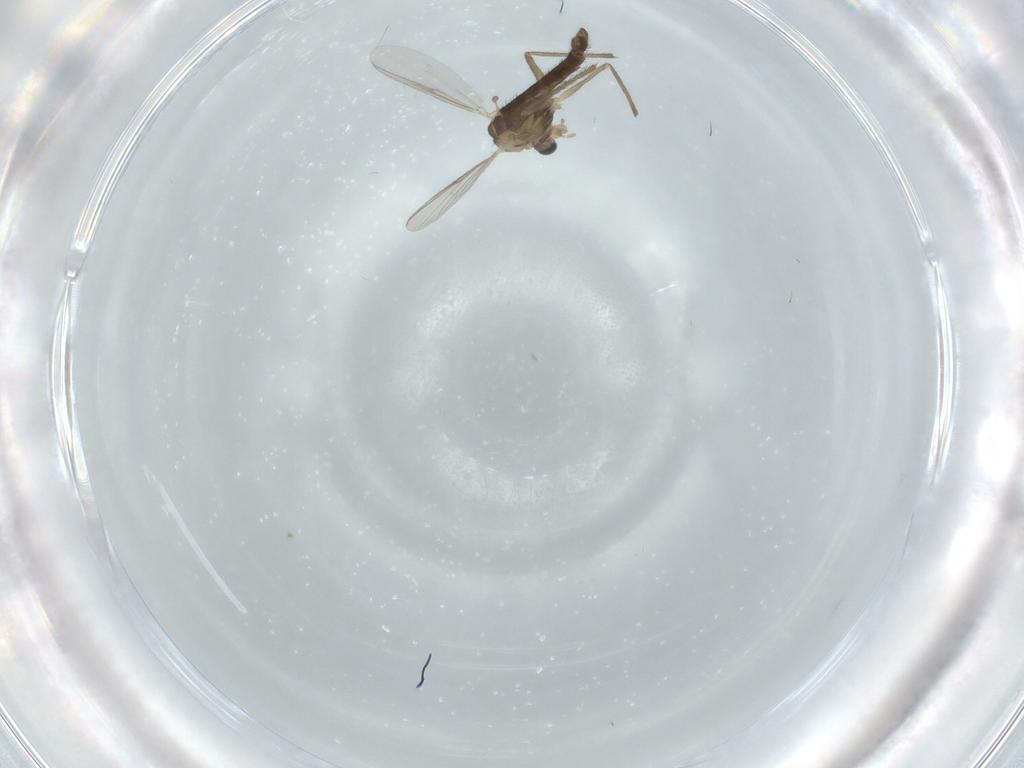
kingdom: Animalia
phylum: Arthropoda
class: Insecta
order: Diptera
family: Chironomidae
